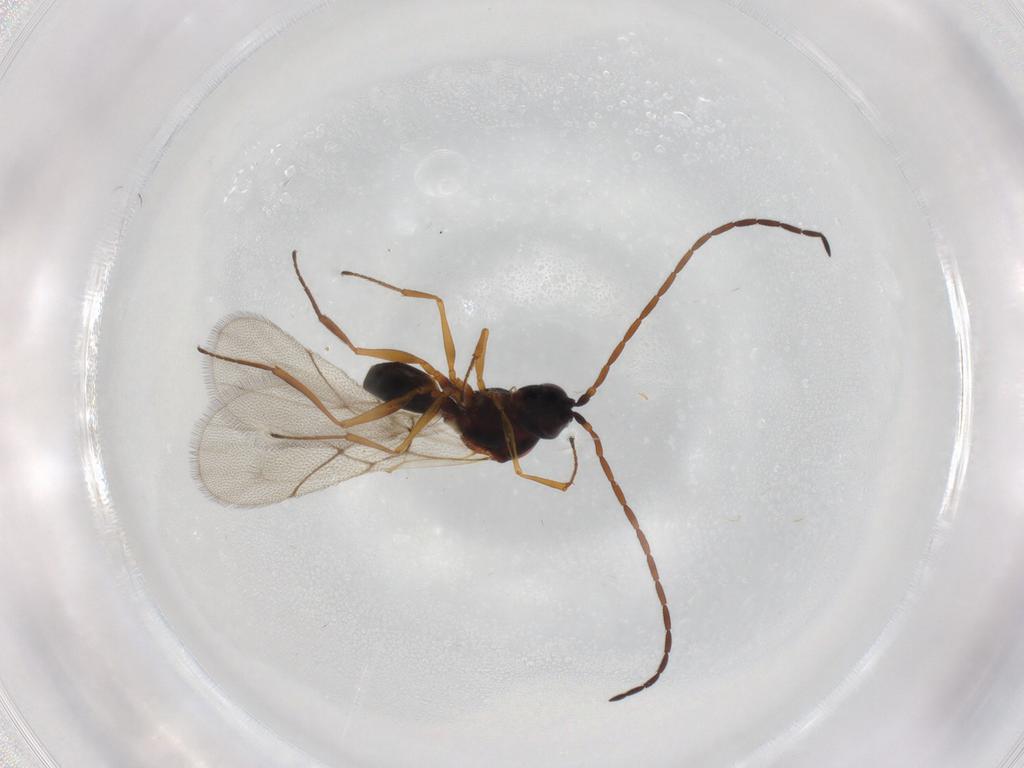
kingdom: Animalia
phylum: Arthropoda
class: Insecta
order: Hymenoptera
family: Figitidae
